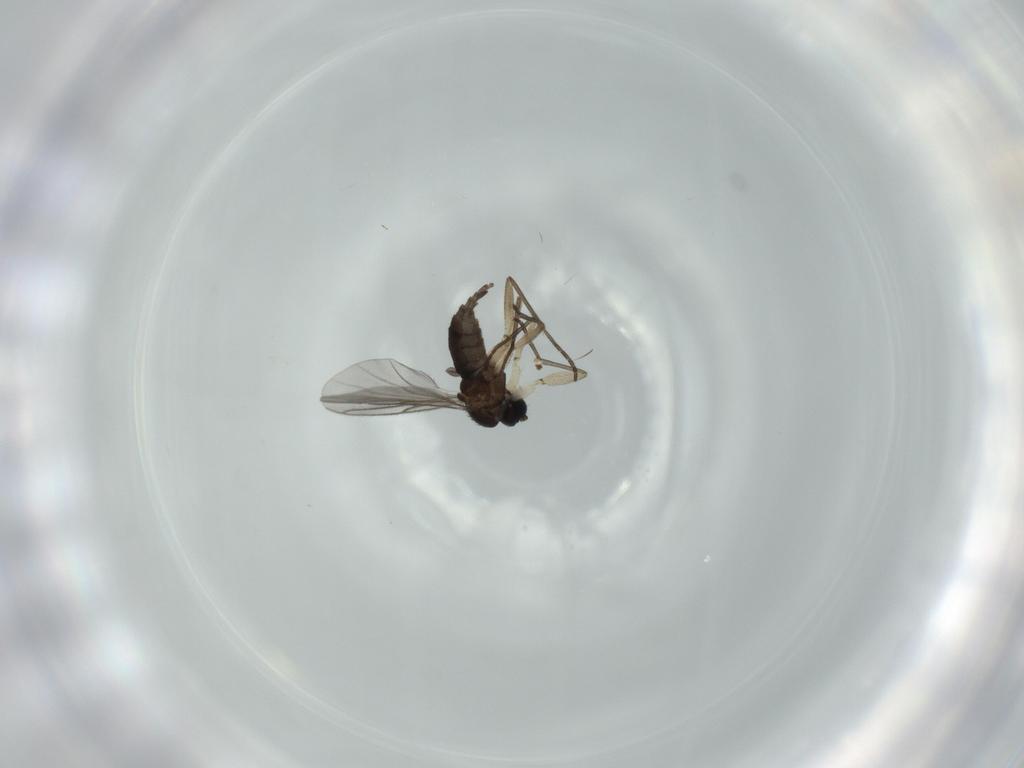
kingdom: Animalia
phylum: Arthropoda
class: Insecta
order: Diptera
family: Sciaridae
